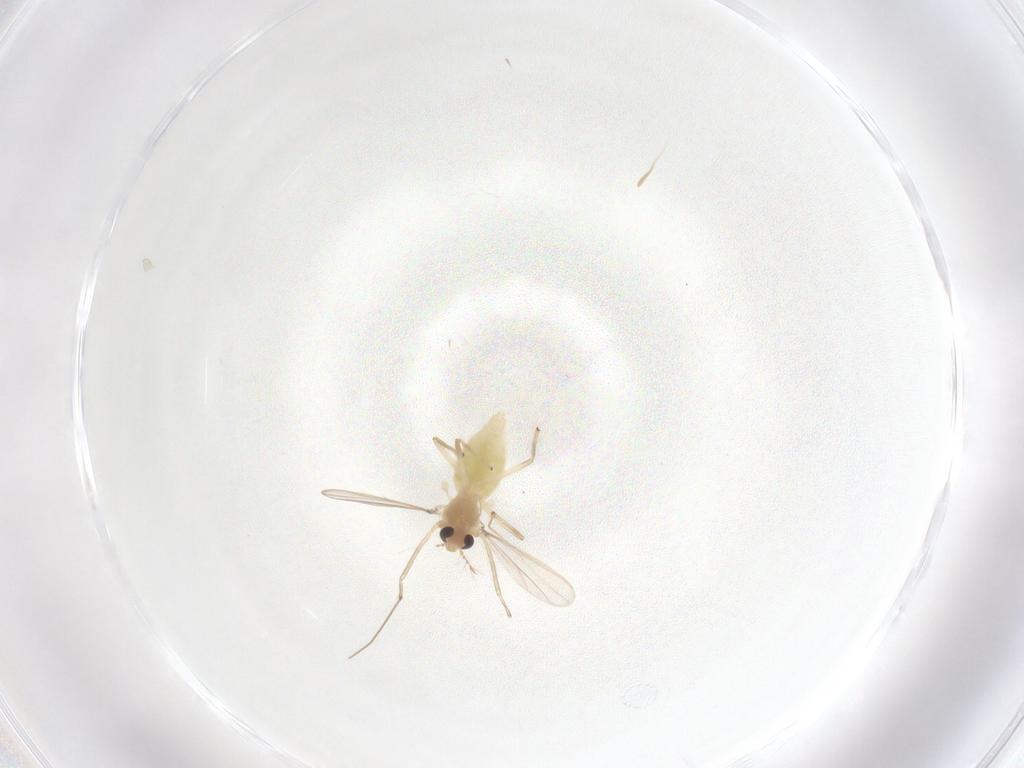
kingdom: Animalia
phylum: Arthropoda
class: Insecta
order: Diptera
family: Chironomidae
